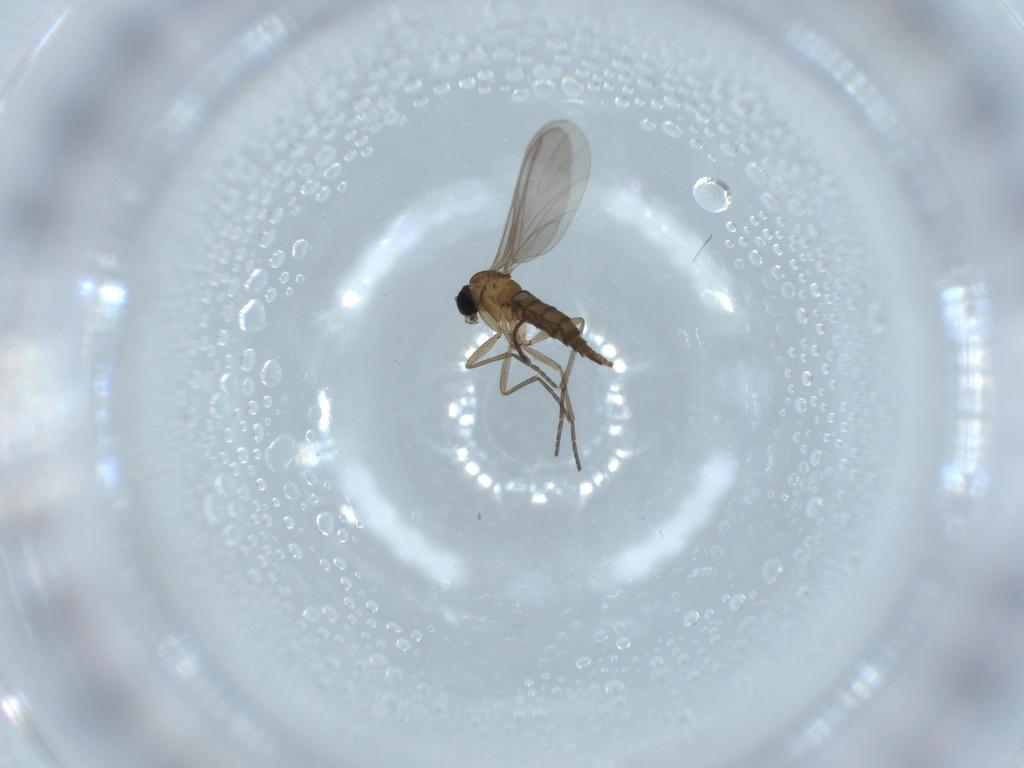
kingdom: Animalia
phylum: Arthropoda
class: Insecta
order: Diptera
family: Sciaridae
